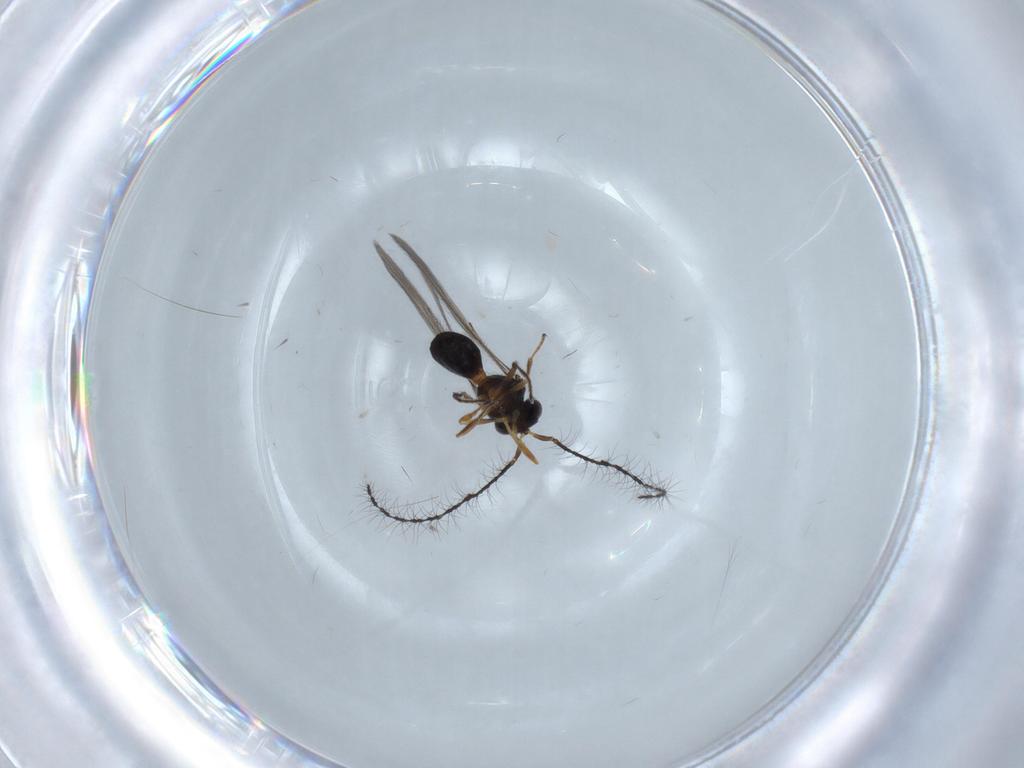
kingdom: Animalia
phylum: Arthropoda
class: Insecta
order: Hymenoptera
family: Scelionidae
